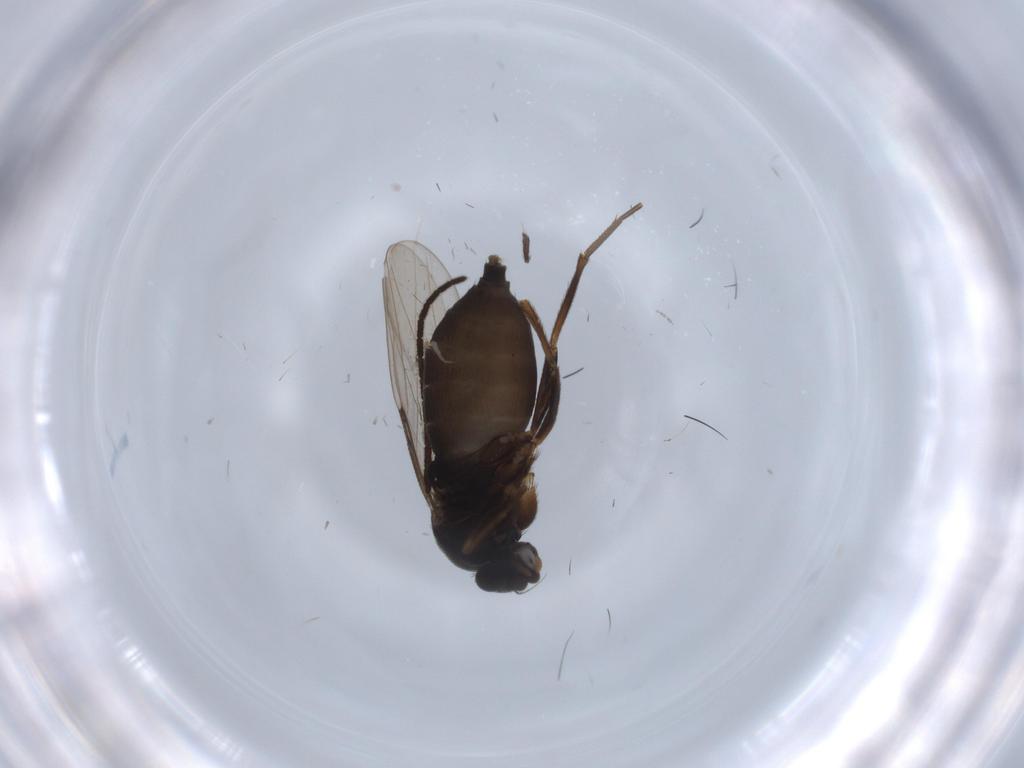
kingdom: Animalia
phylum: Arthropoda
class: Insecta
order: Diptera
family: Culicidae
